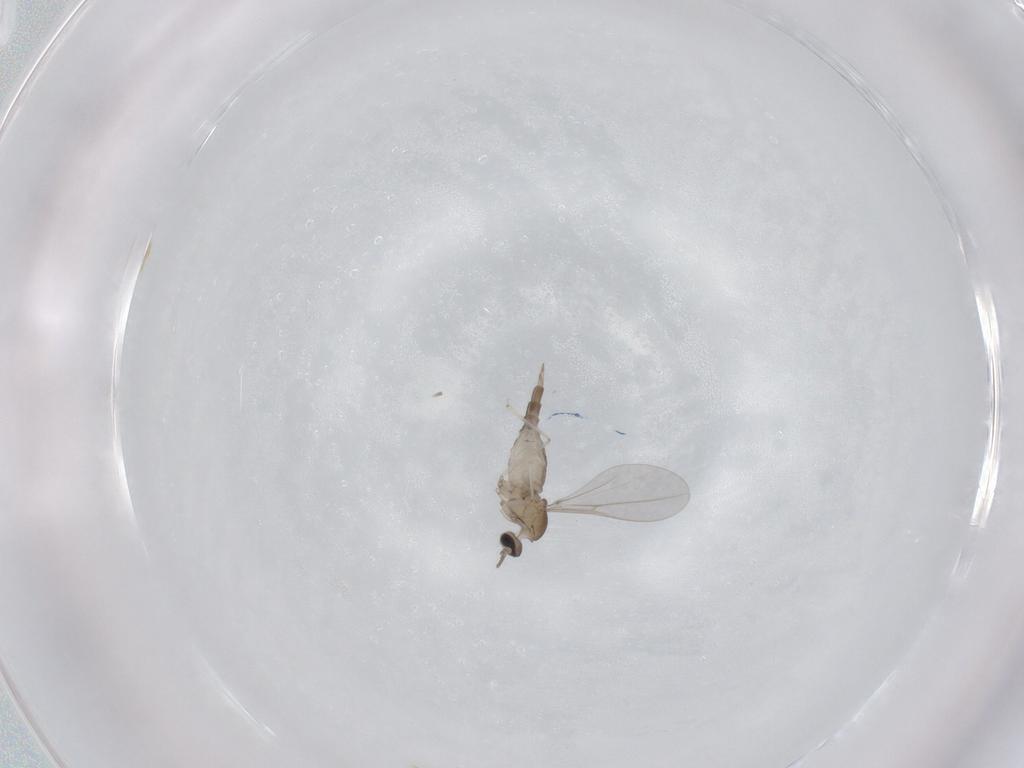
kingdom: Animalia
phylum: Arthropoda
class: Insecta
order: Diptera
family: Cecidomyiidae
